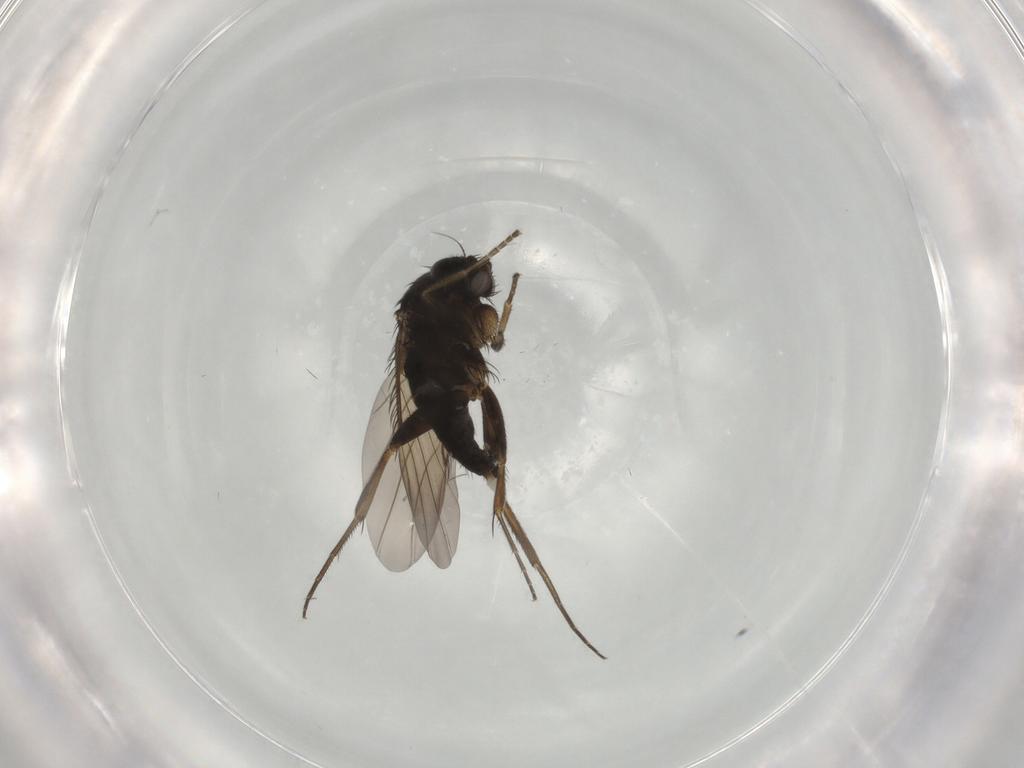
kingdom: Animalia
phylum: Arthropoda
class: Insecta
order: Diptera
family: Phoridae
